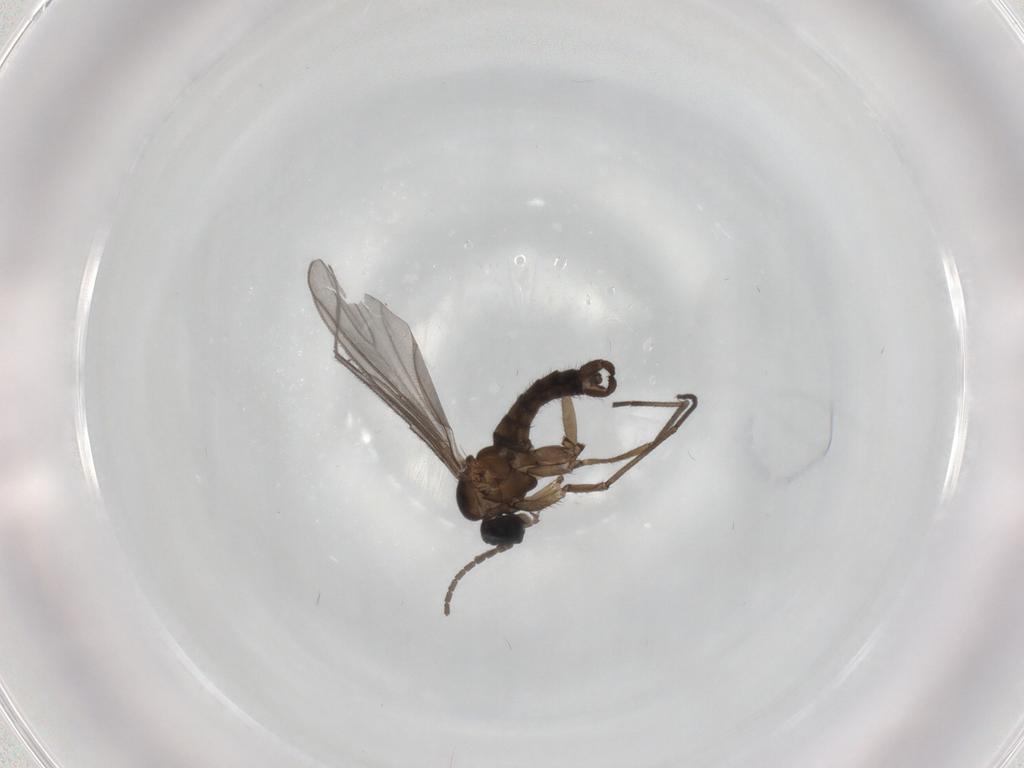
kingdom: Animalia
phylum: Arthropoda
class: Insecta
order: Diptera
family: Sciaridae
